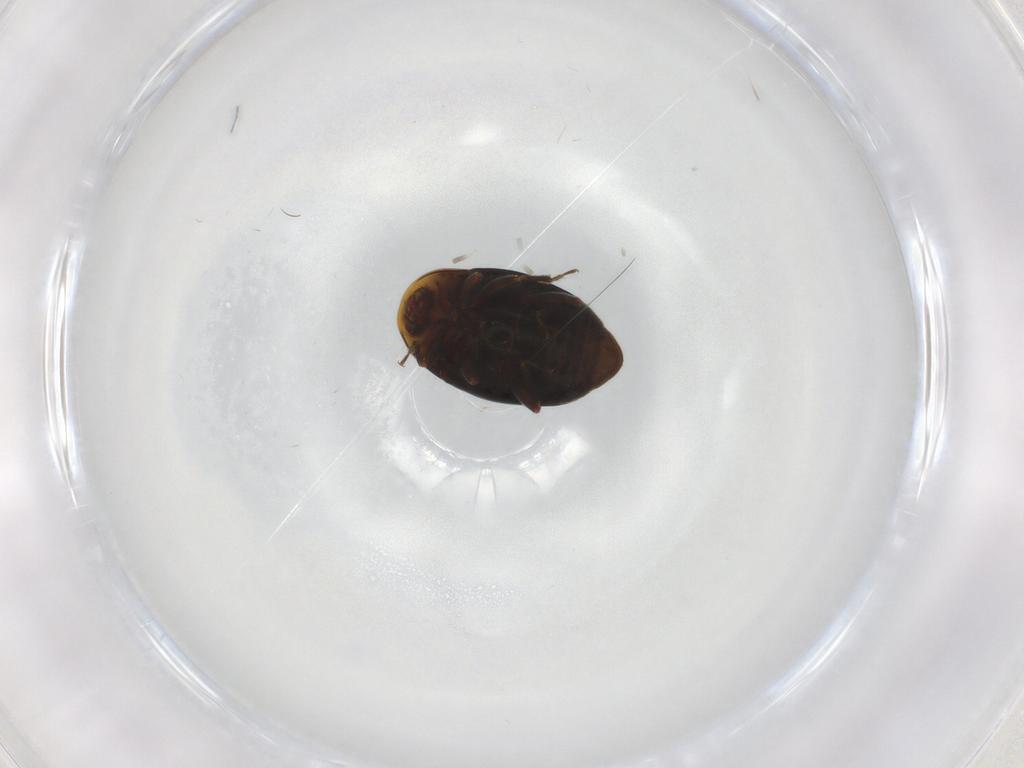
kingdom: Animalia
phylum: Arthropoda
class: Insecta
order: Coleoptera
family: Corylophidae
